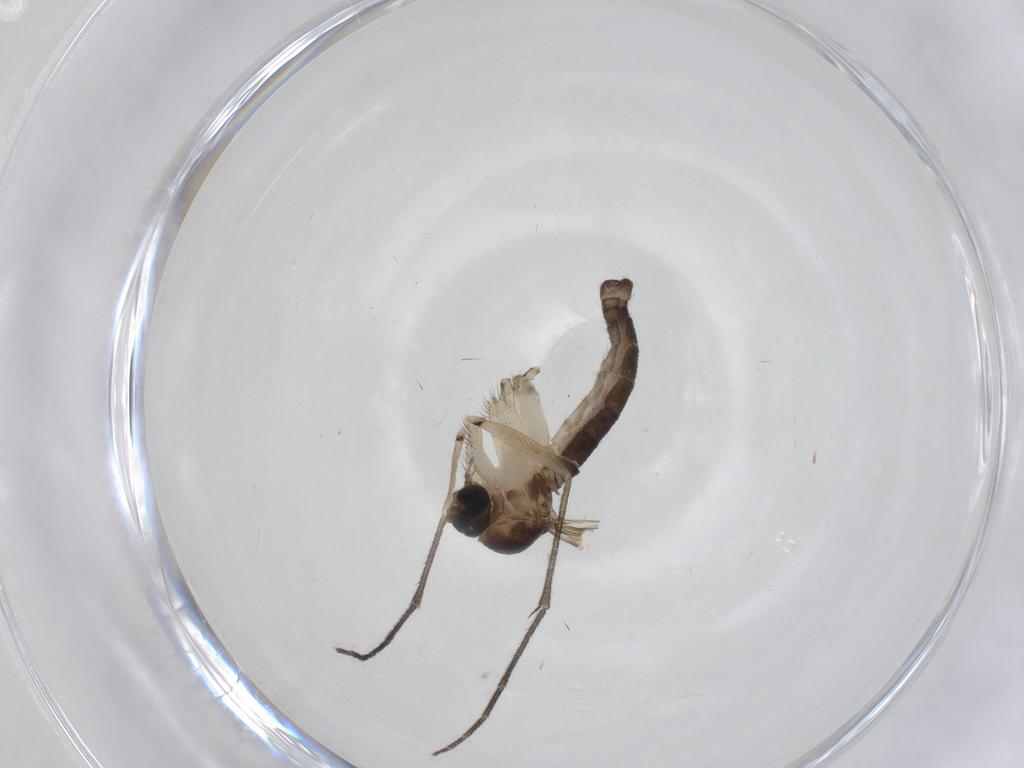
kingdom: Animalia
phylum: Arthropoda
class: Insecta
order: Diptera
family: Sciaridae
